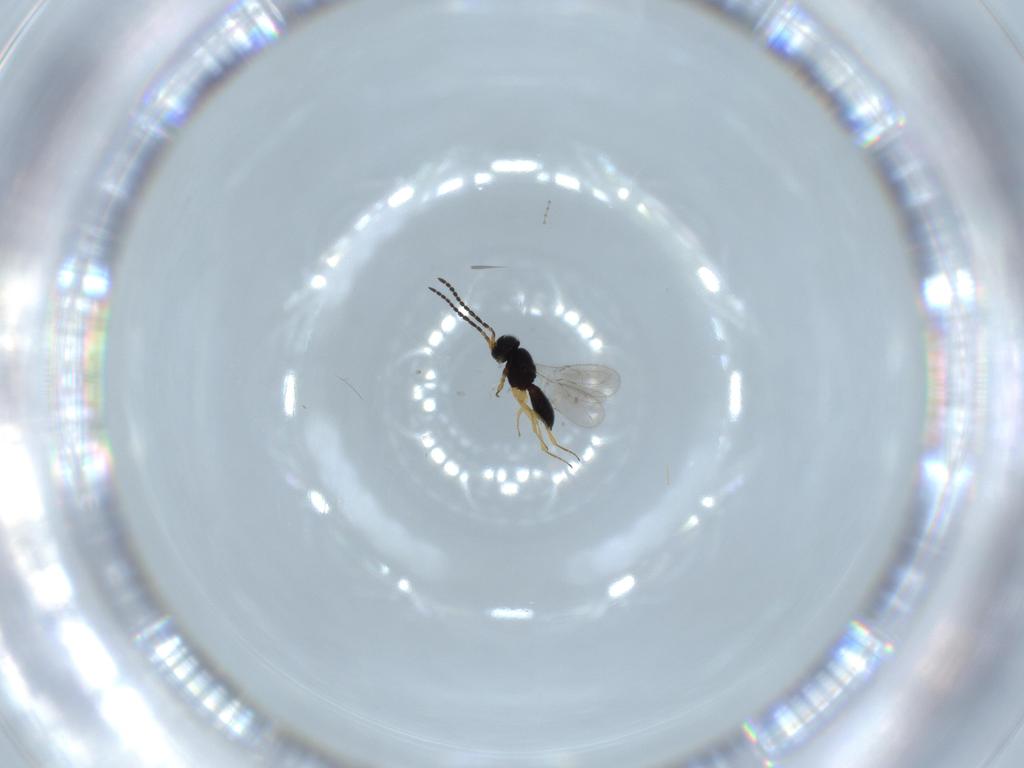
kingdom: Animalia
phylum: Arthropoda
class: Insecta
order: Hymenoptera
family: Scelionidae
